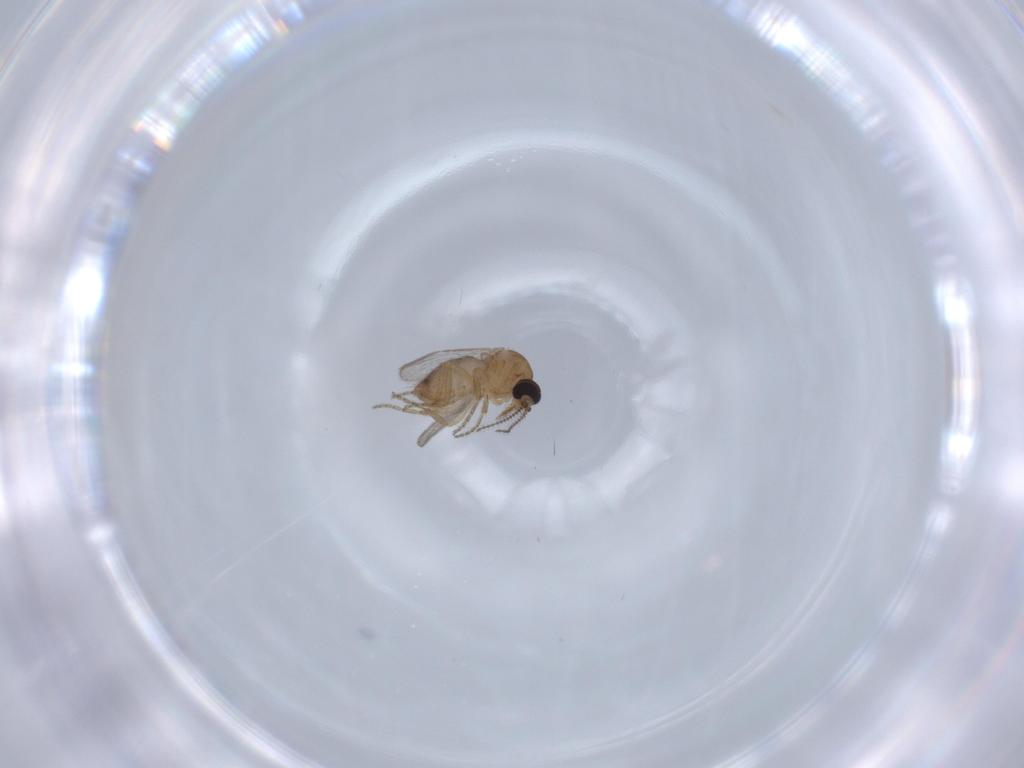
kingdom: Animalia
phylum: Arthropoda
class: Insecta
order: Diptera
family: Ceratopogonidae
